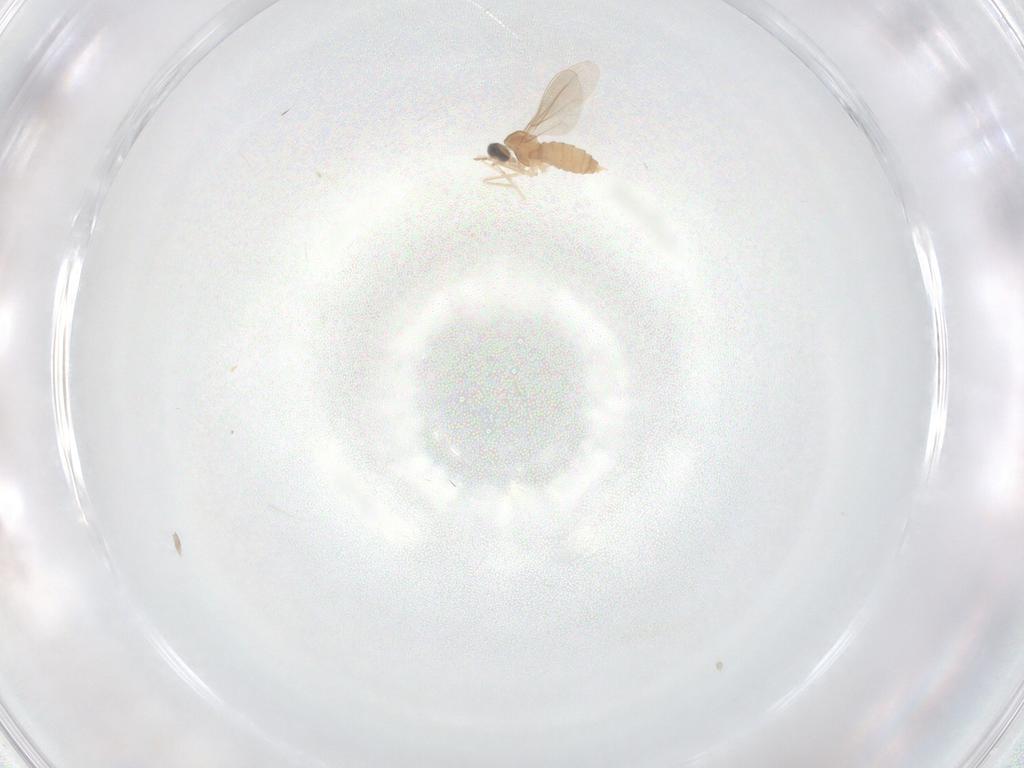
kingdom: Animalia
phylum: Arthropoda
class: Insecta
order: Diptera
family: Cecidomyiidae
